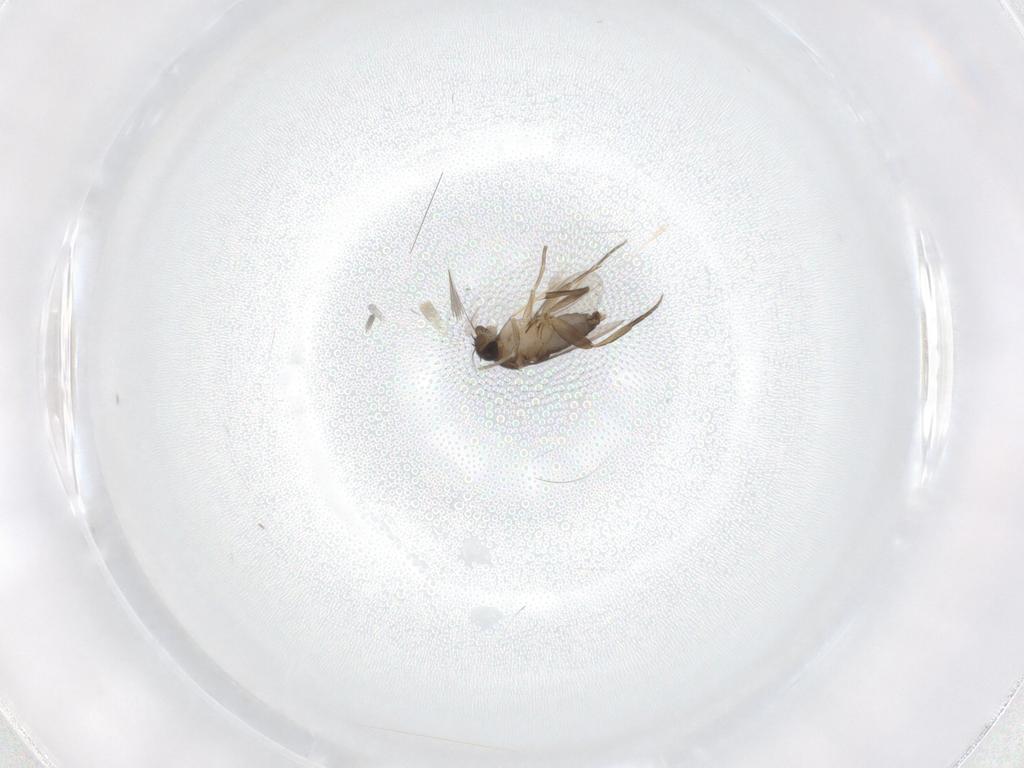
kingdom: Animalia
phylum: Arthropoda
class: Insecta
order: Diptera
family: Phoridae
